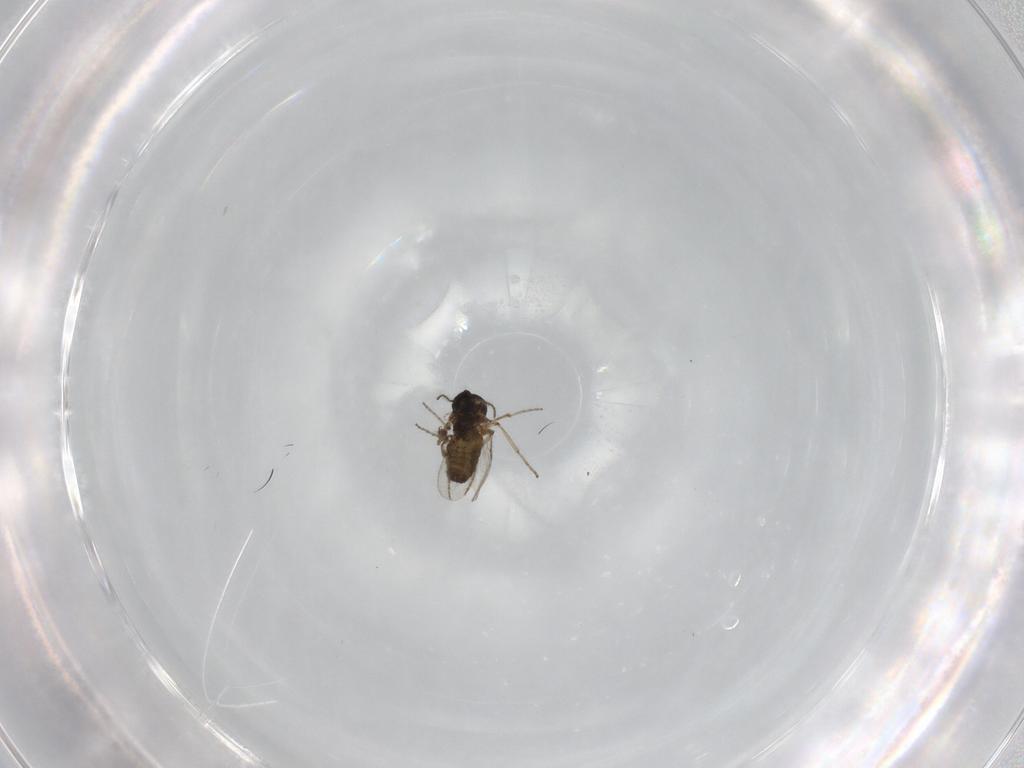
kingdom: Animalia
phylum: Arthropoda
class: Insecta
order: Diptera
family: Ceratopogonidae
